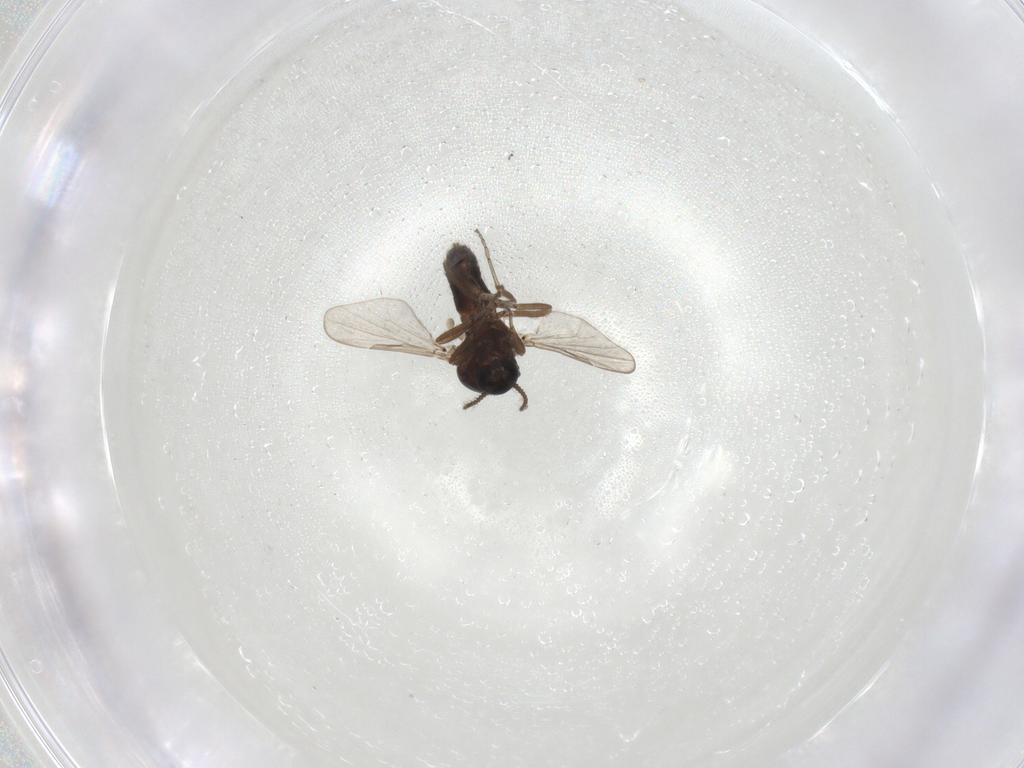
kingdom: Animalia
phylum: Arthropoda
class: Insecta
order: Diptera
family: Ceratopogonidae
